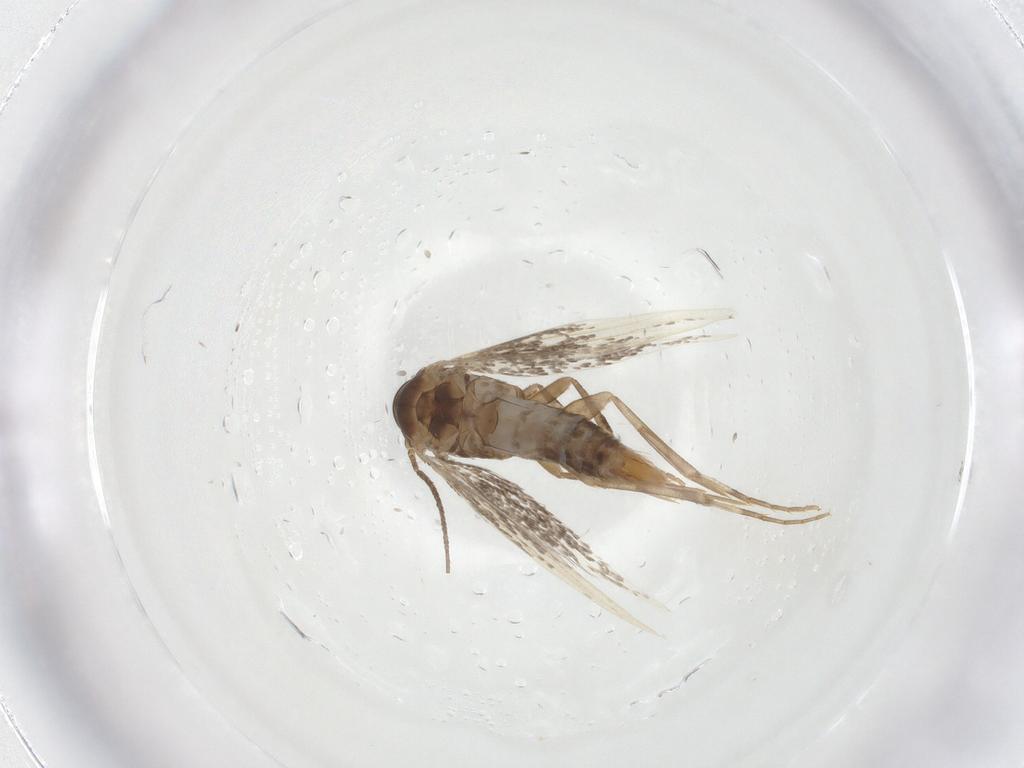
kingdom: Animalia
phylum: Arthropoda
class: Insecta
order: Lepidoptera
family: Elachistidae
